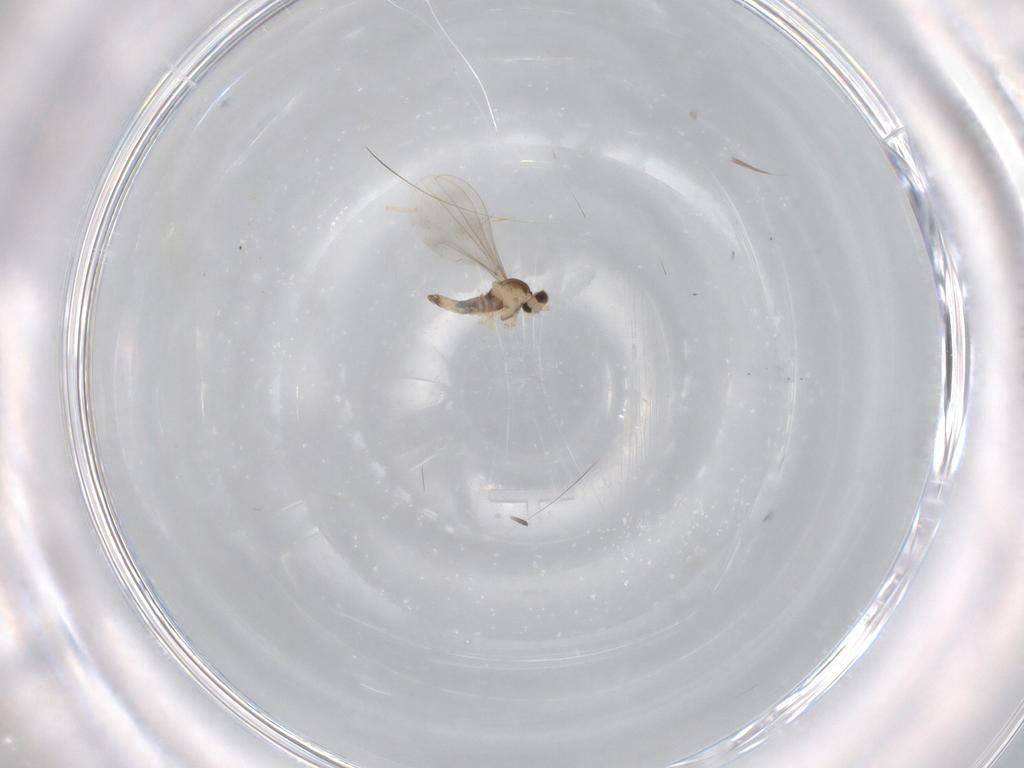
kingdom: Animalia
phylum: Arthropoda
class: Insecta
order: Diptera
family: Cecidomyiidae
